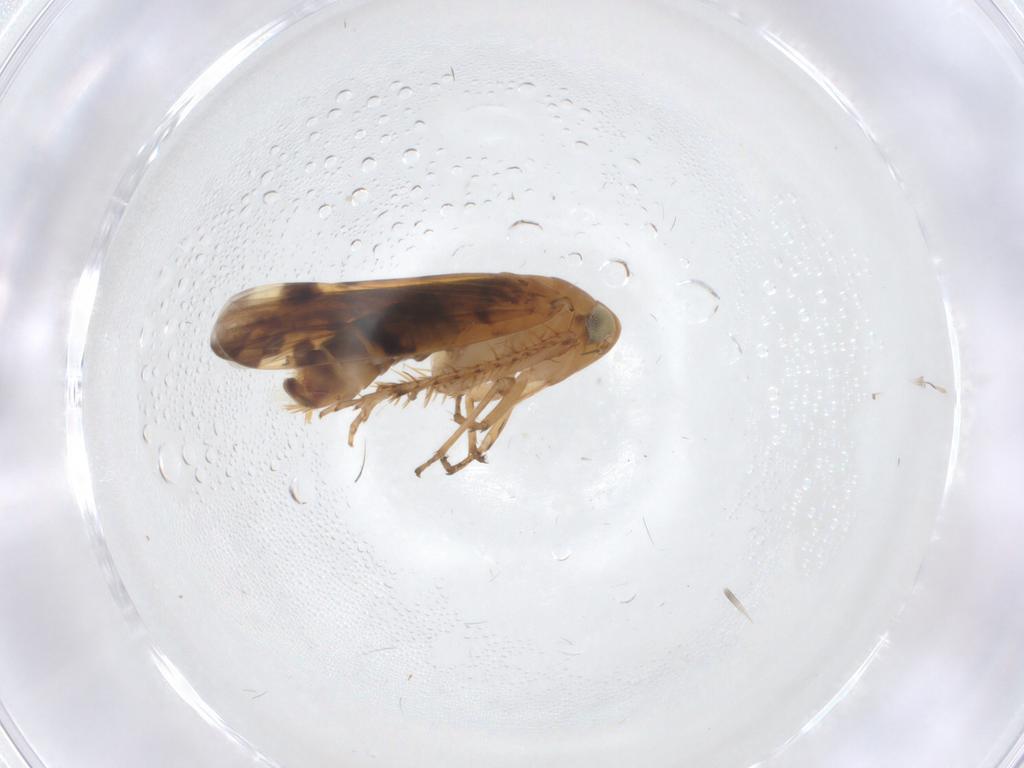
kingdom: Animalia
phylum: Arthropoda
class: Insecta
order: Hemiptera
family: Cicadellidae
